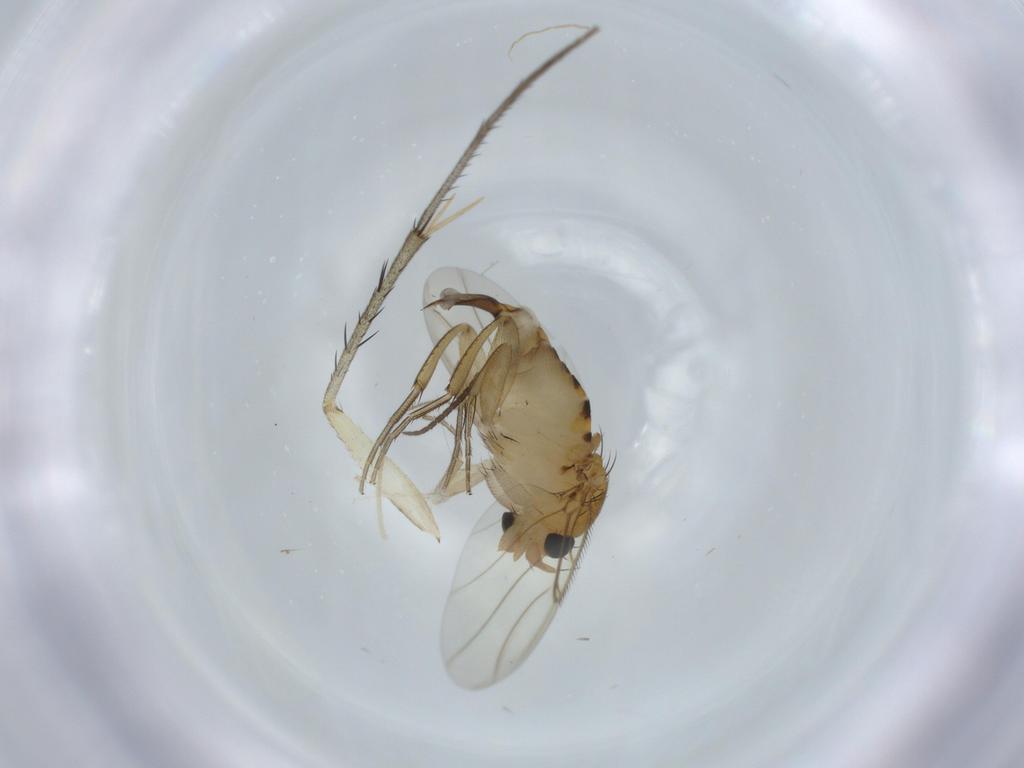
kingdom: Animalia
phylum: Arthropoda
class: Insecta
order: Diptera
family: Phoridae
